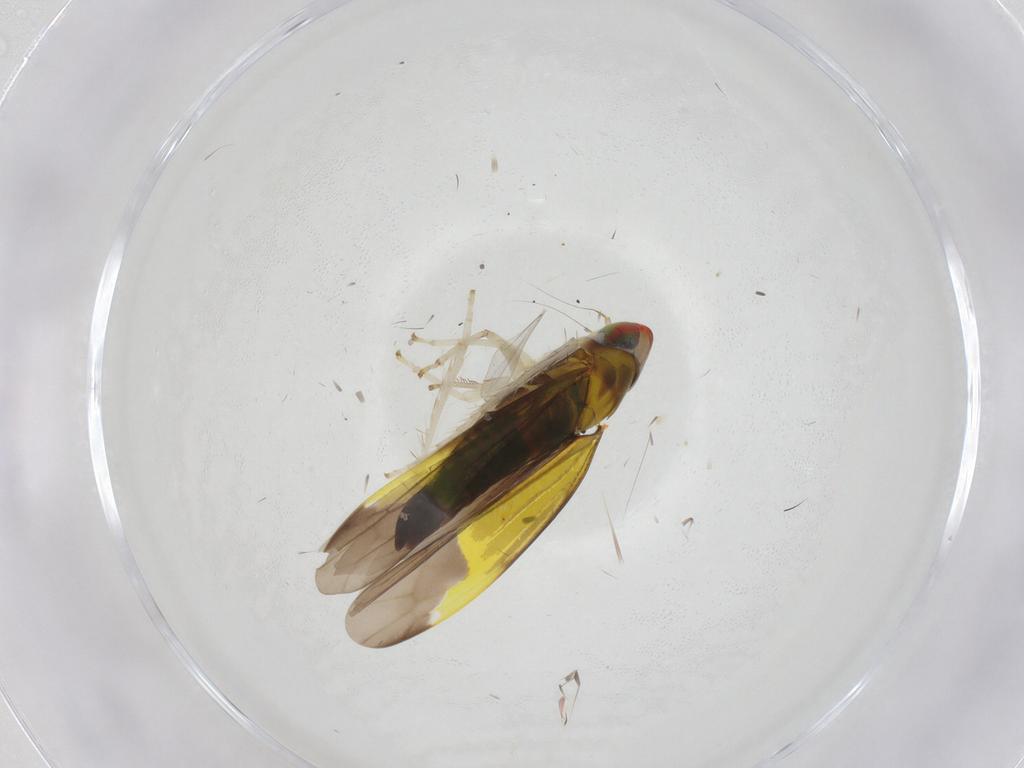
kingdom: Animalia
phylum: Arthropoda
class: Insecta
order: Hemiptera
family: Cicadellidae
